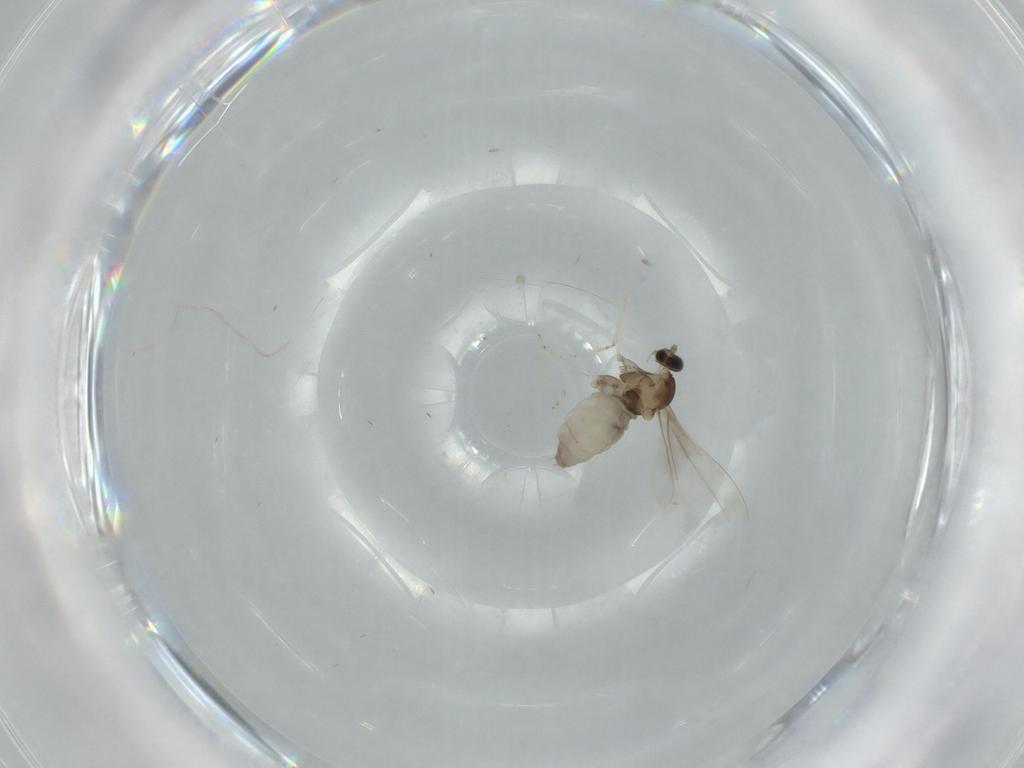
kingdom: Animalia
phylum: Arthropoda
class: Insecta
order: Diptera
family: Cecidomyiidae
